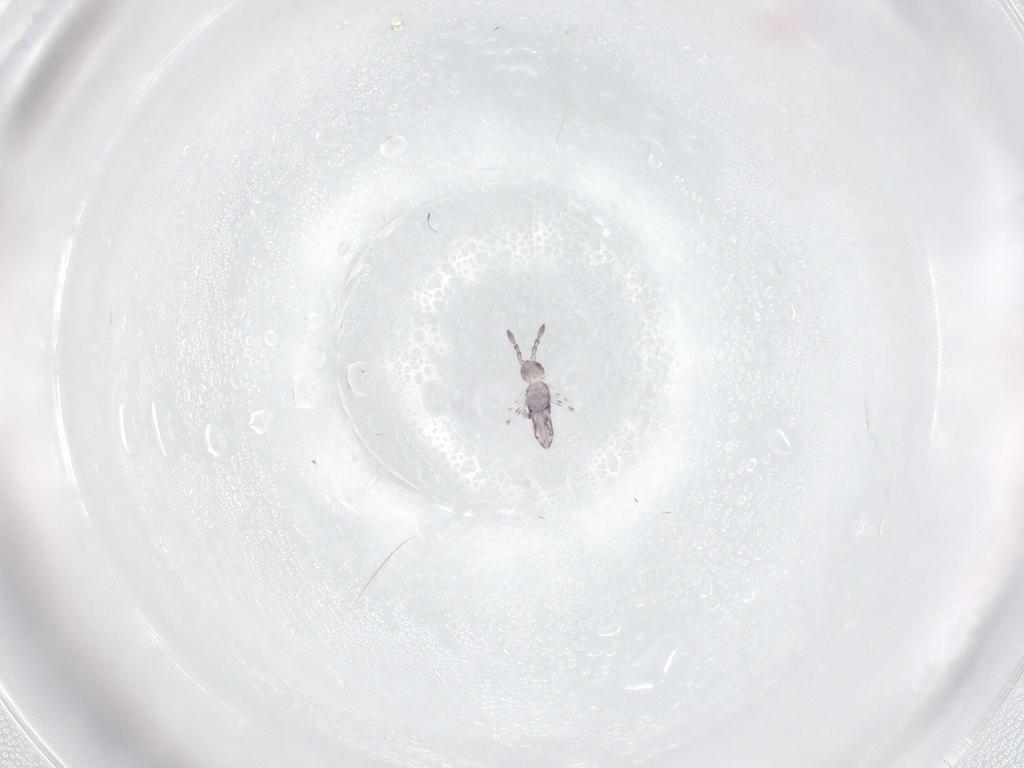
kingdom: Animalia
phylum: Arthropoda
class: Collembola
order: Entomobryomorpha
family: Entomobryidae
